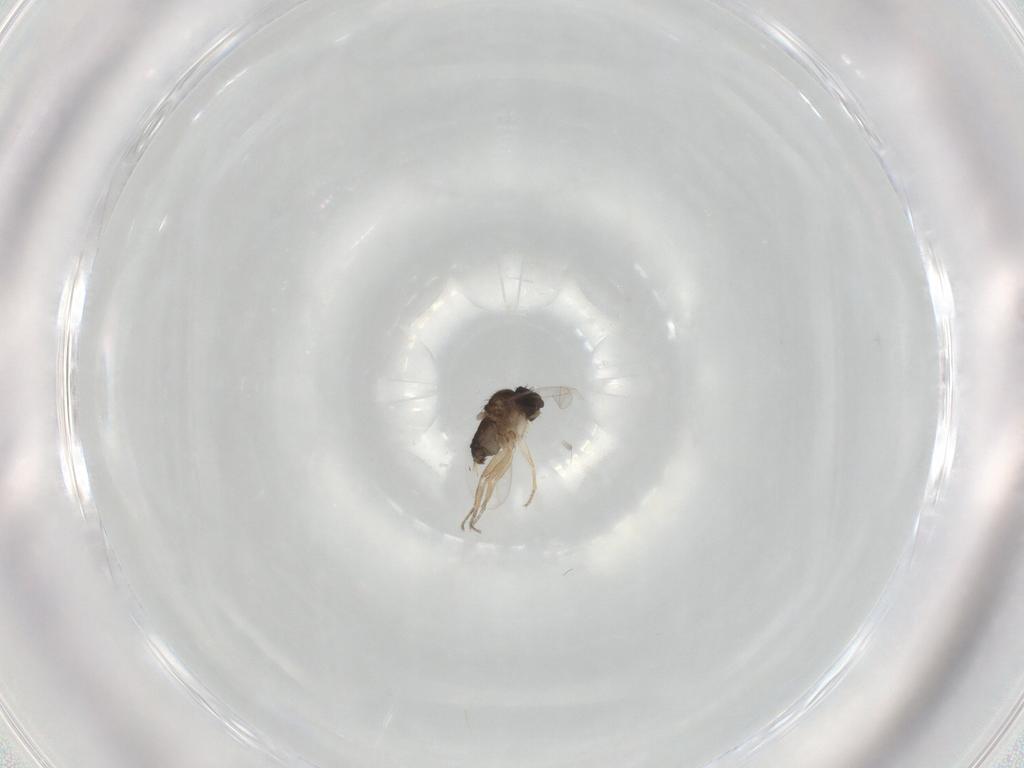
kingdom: Animalia
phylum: Arthropoda
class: Insecta
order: Diptera
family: Phoridae
